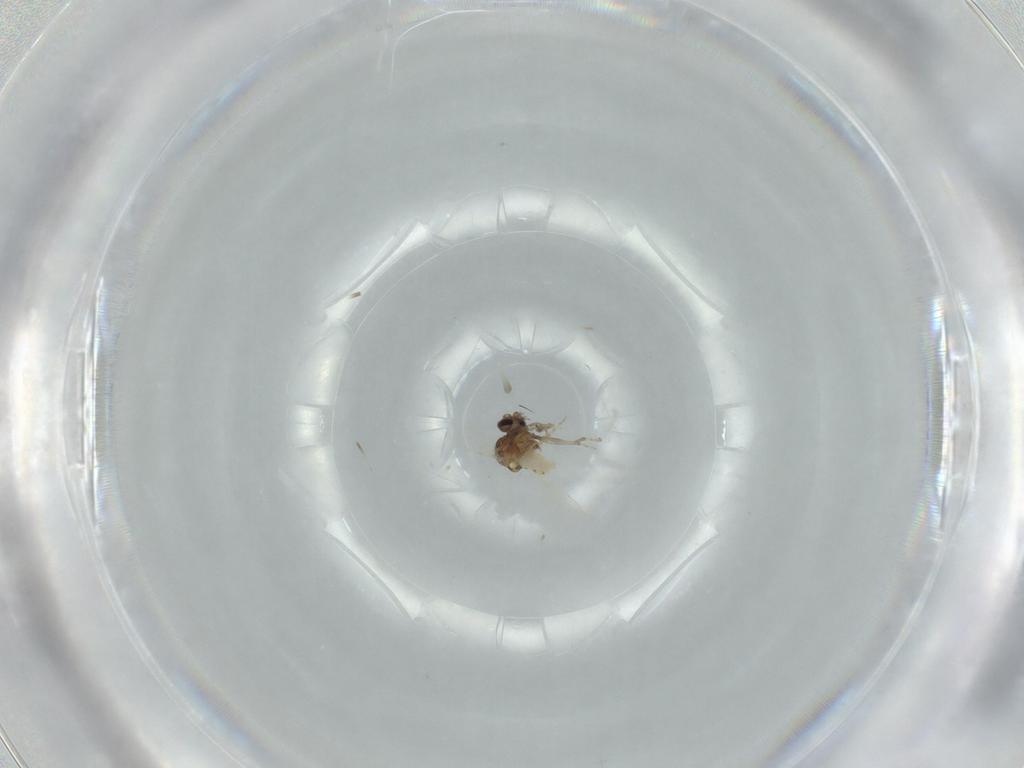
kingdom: Animalia
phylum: Arthropoda
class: Insecta
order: Diptera
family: Ceratopogonidae
